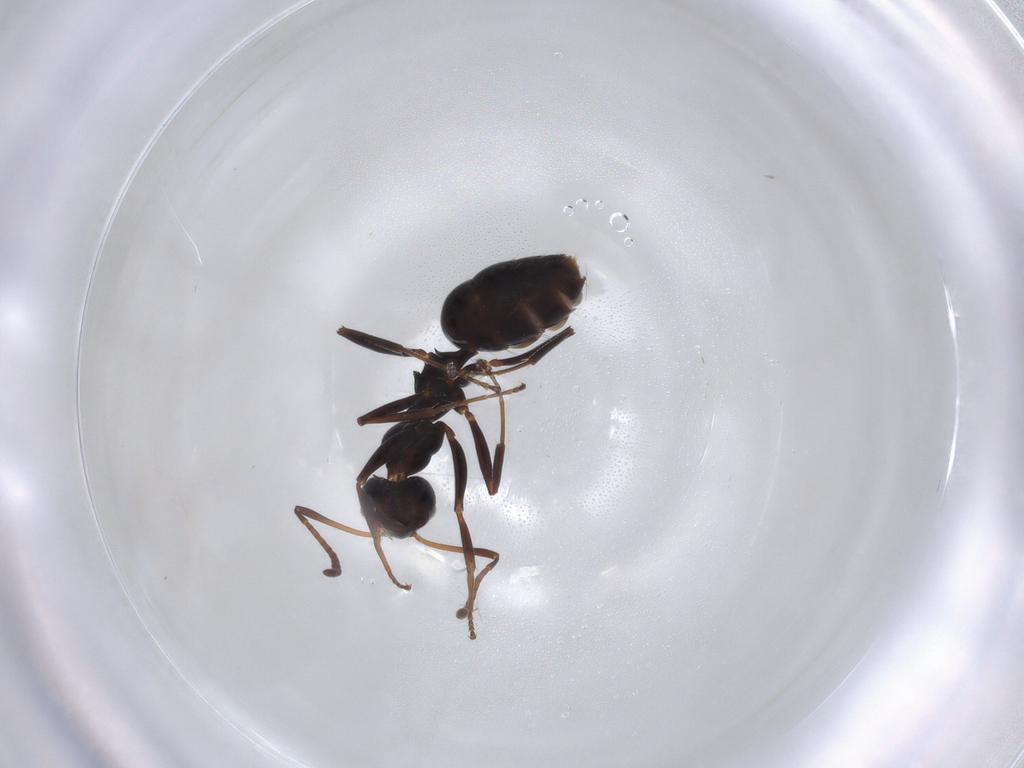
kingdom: Animalia
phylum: Arthropoda
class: Insecta
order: Hymenoptera
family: Formicidae
